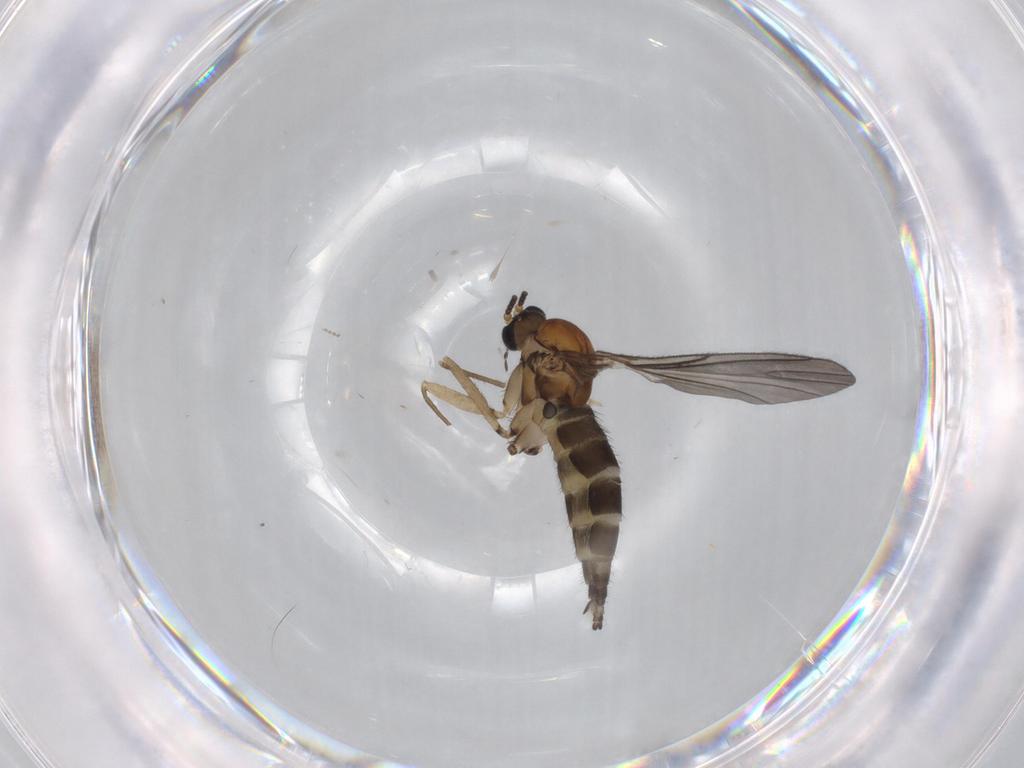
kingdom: Animalia
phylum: Arthropoda
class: Insecta
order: Diptera
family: Sciaridae
